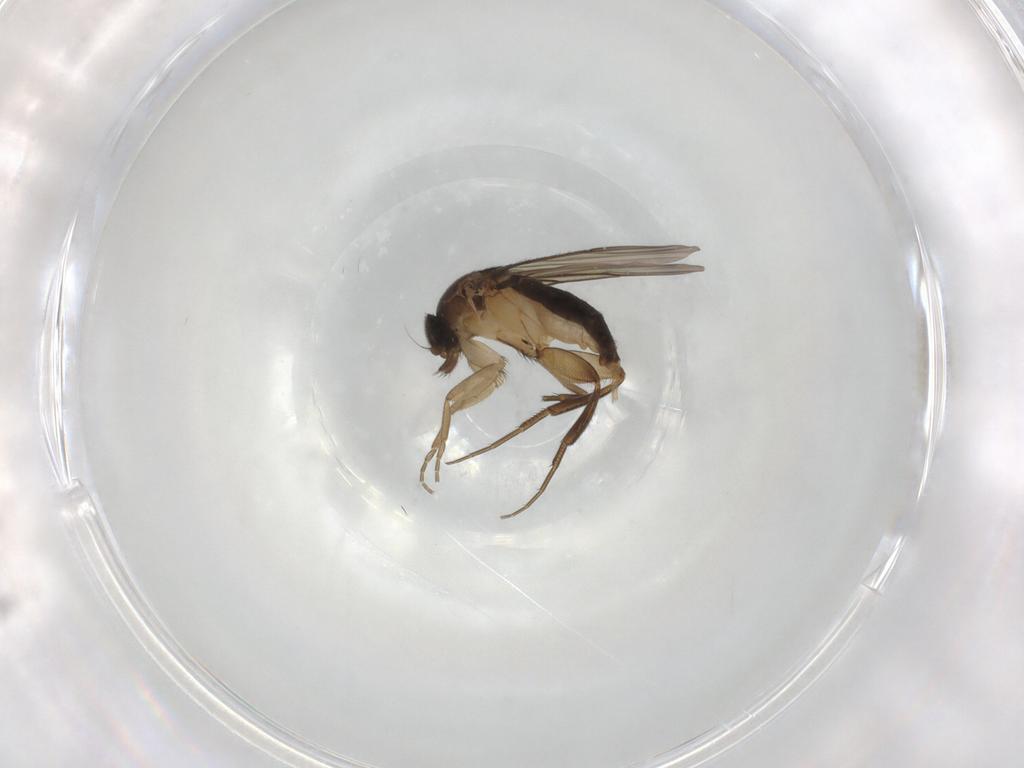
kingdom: Animalia
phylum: Arthropoda
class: Insecta
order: Diptera
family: Phoridae
